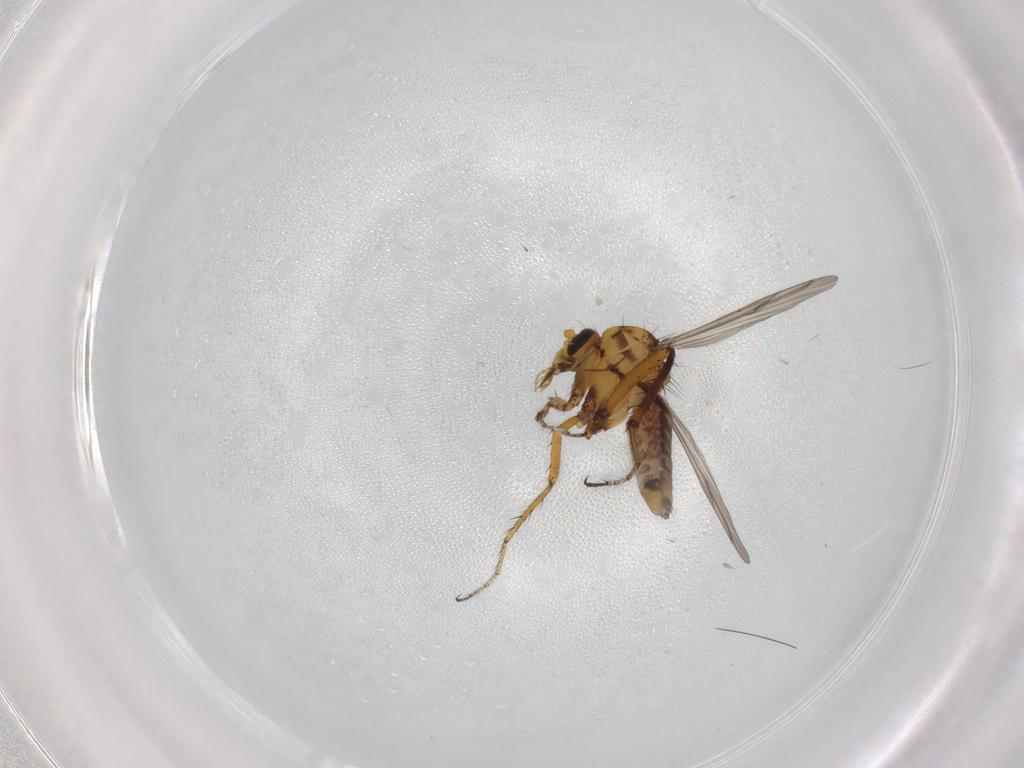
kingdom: Animalia
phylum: Arthropoda
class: Insecta
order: Diptera
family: Ceratopogonidae
